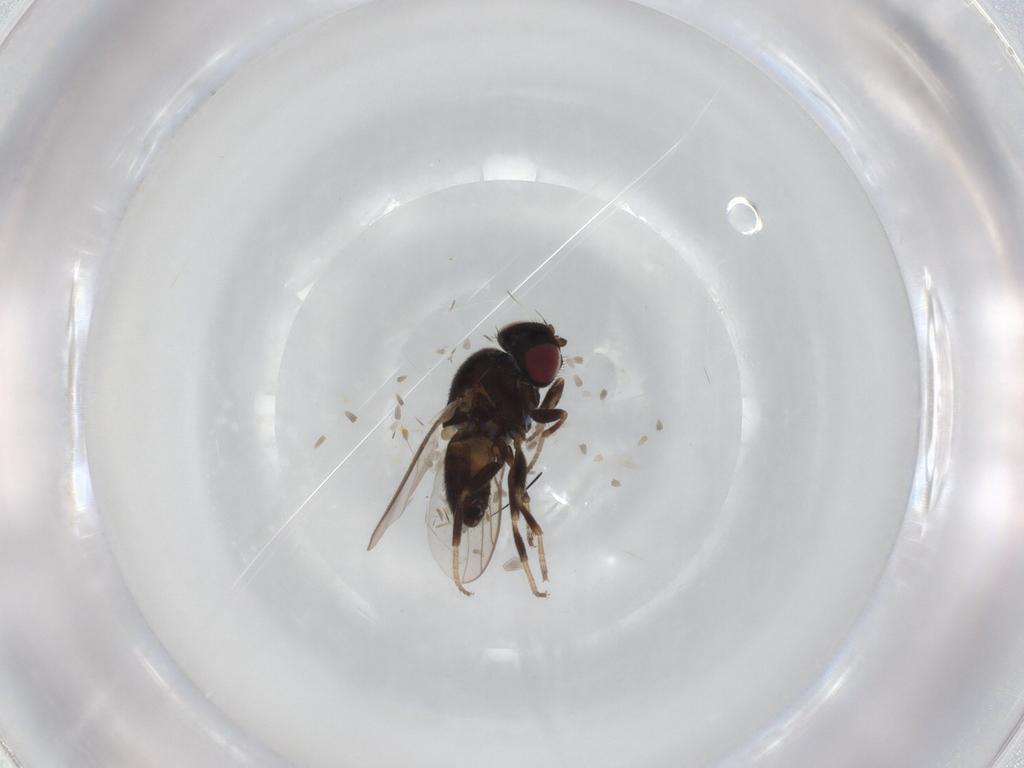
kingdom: Animalia
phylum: Arthropoda
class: Insecta
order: Diptera
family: Chloropidae
